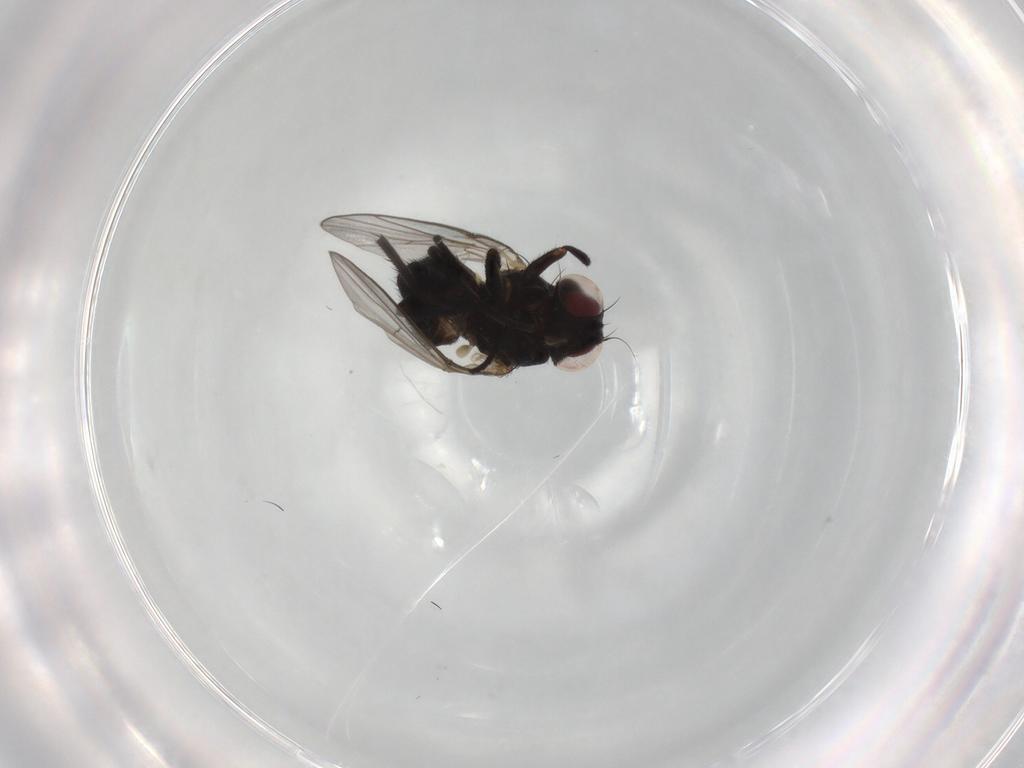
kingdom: Animalia
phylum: Arthropoda
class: Insecta
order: Diptera
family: Agromyzidae
